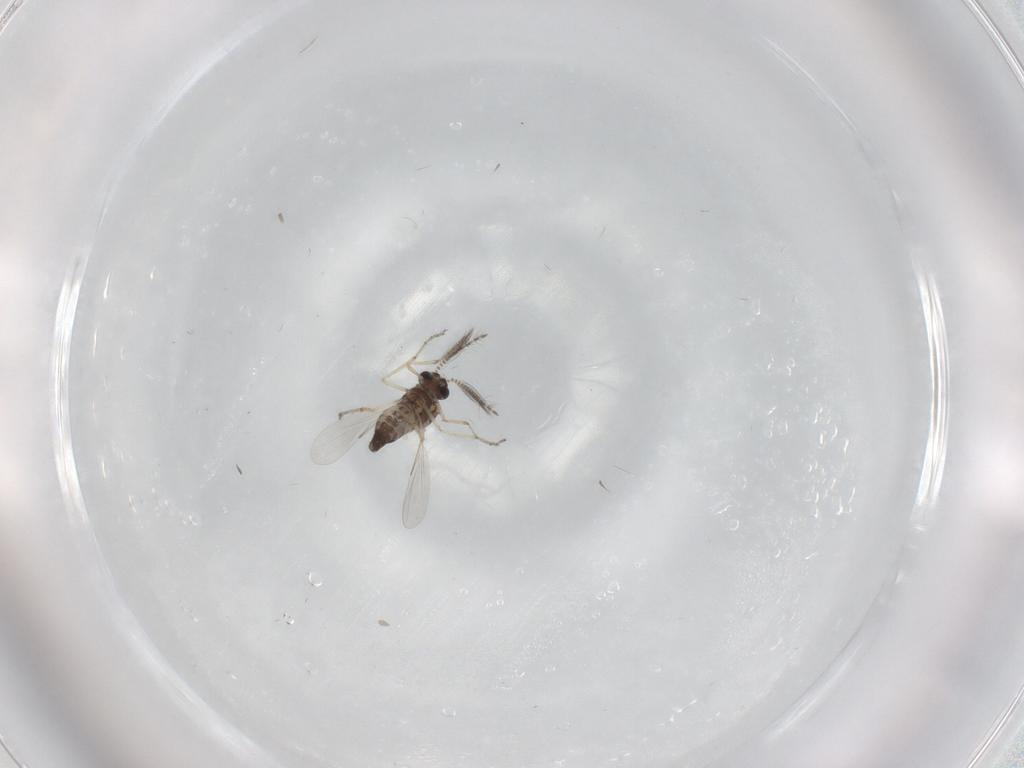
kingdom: Animalia
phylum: Arthropoda
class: Insecta
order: Diptera
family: Ceratopogonidae
